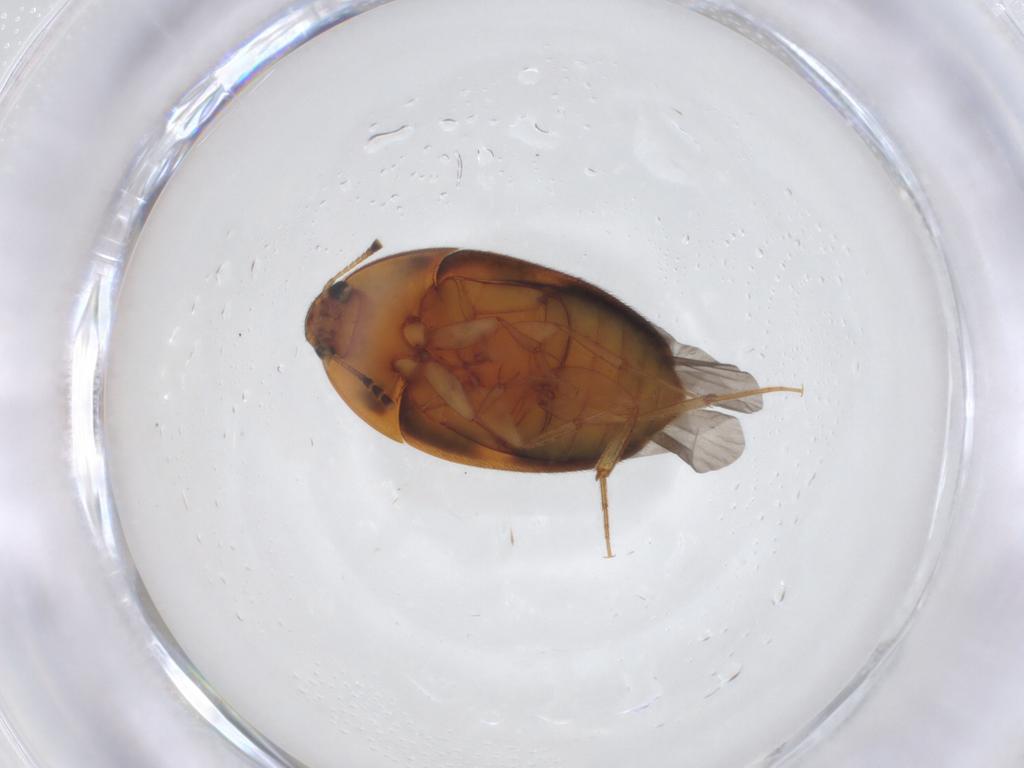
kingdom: Animalia
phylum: Arthropoda
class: Insecta
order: Coleoptera
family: Mycetophagidae
